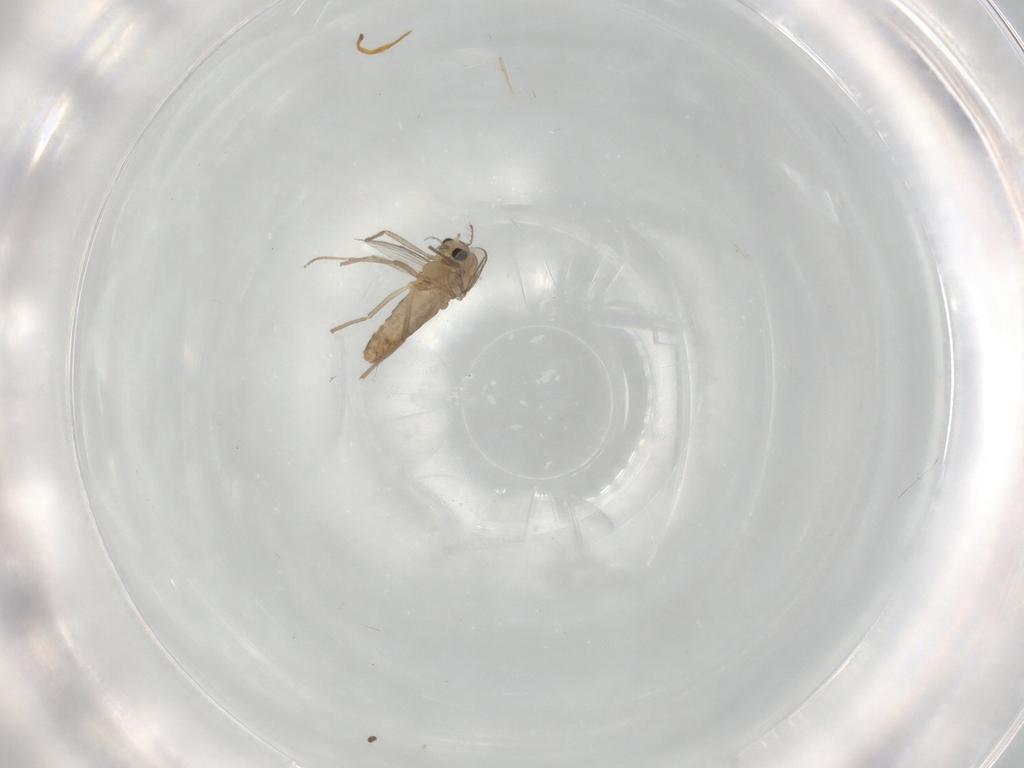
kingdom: Animalia
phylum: Arthropoda
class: Insecta
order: Diptera
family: Chironomidae
